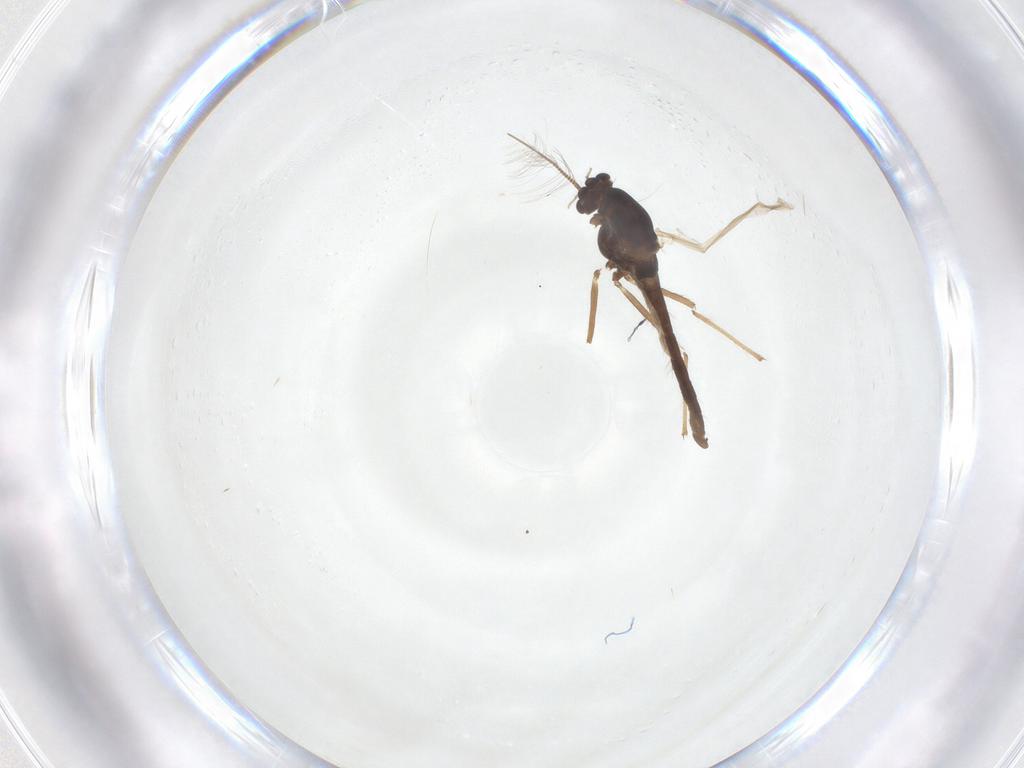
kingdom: Animalia
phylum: Arthropoda
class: Insecta
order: Diptera
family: Chironomidae
